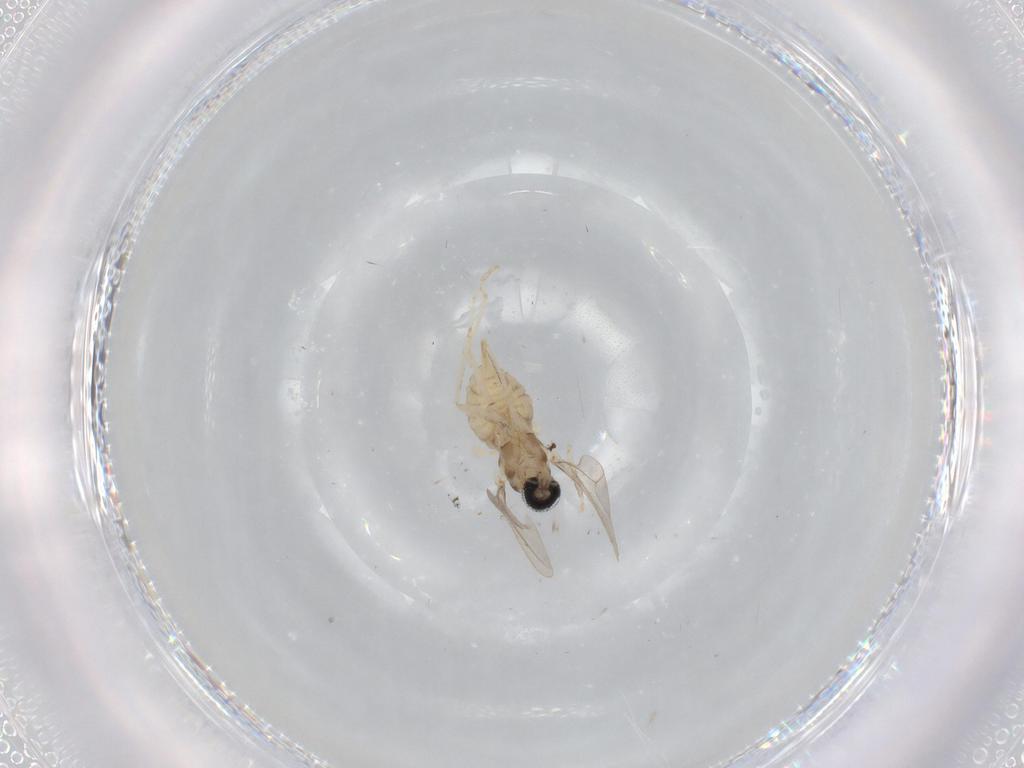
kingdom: Animalia
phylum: Arthropoda
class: Insecta
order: Diptera
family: Cecidomyiidae
